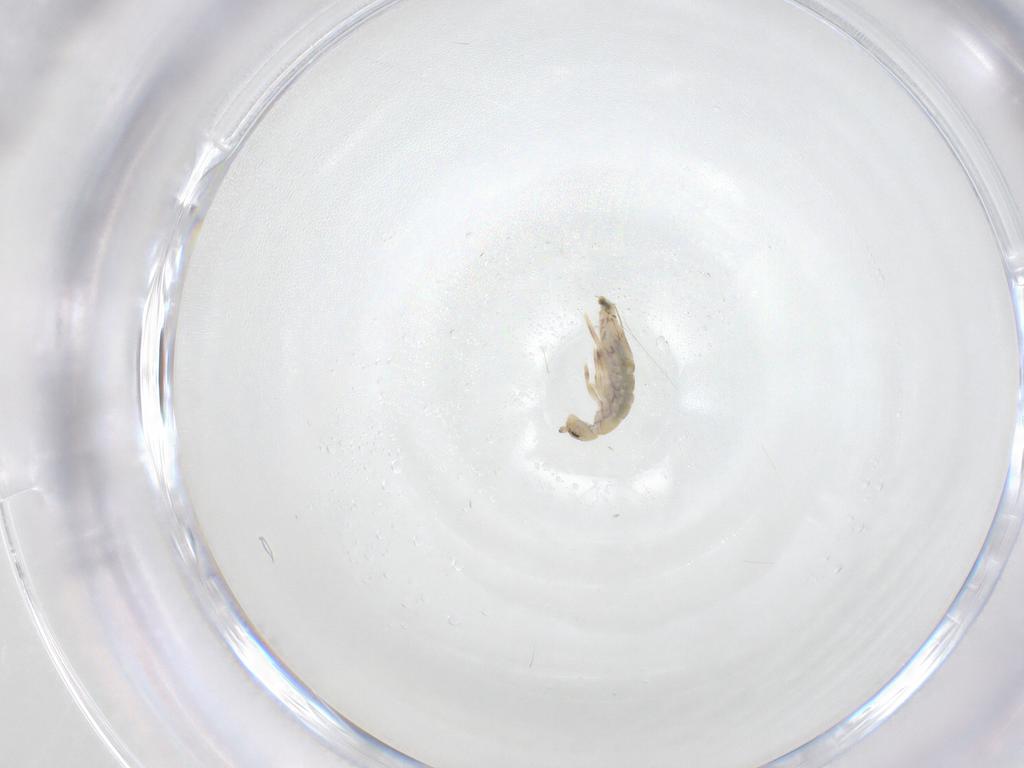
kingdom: Animalia
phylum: Arthropoda
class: Collembola
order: Entomobryomorpha
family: Entomobryidae
